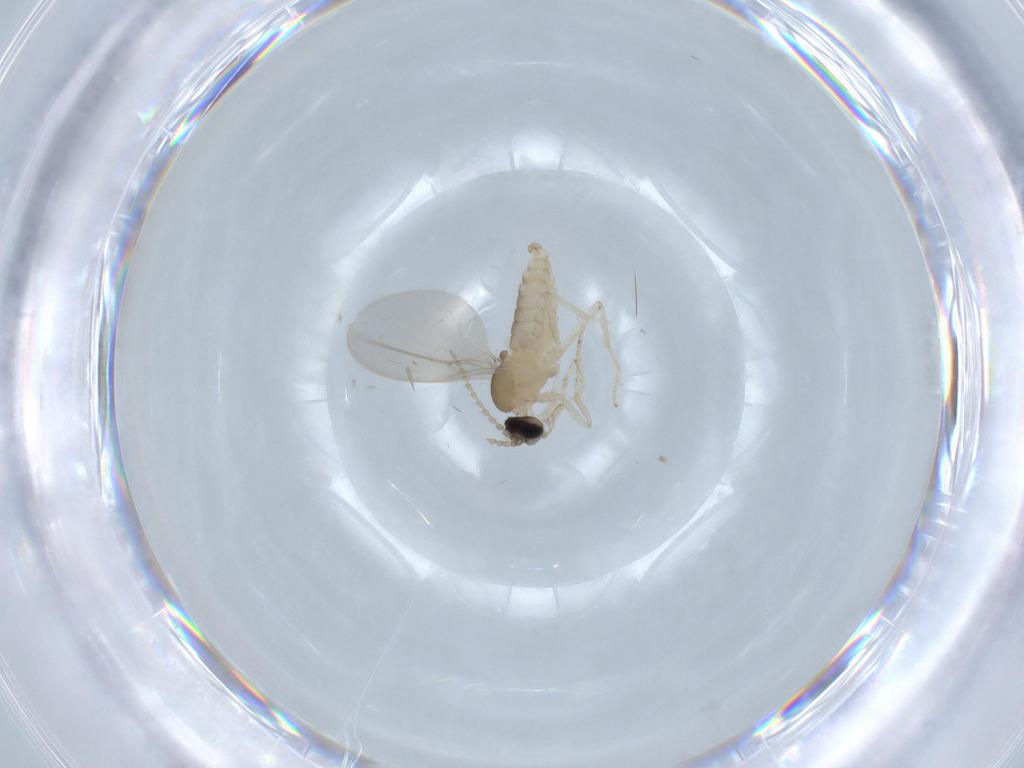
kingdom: Animalia
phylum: Arthropoda
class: Insecta
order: Diptera
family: Cecidomyiidae
